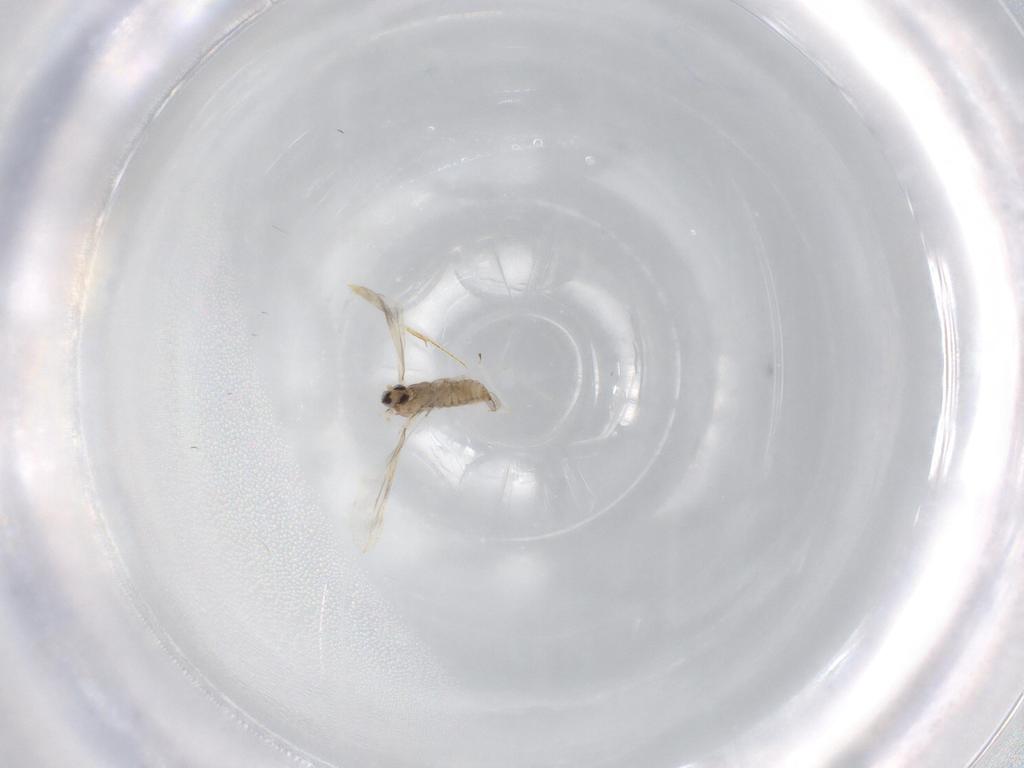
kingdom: Animalia
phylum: Arthropoda
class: Insecta
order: Diptera
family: Cecidomyiidae
